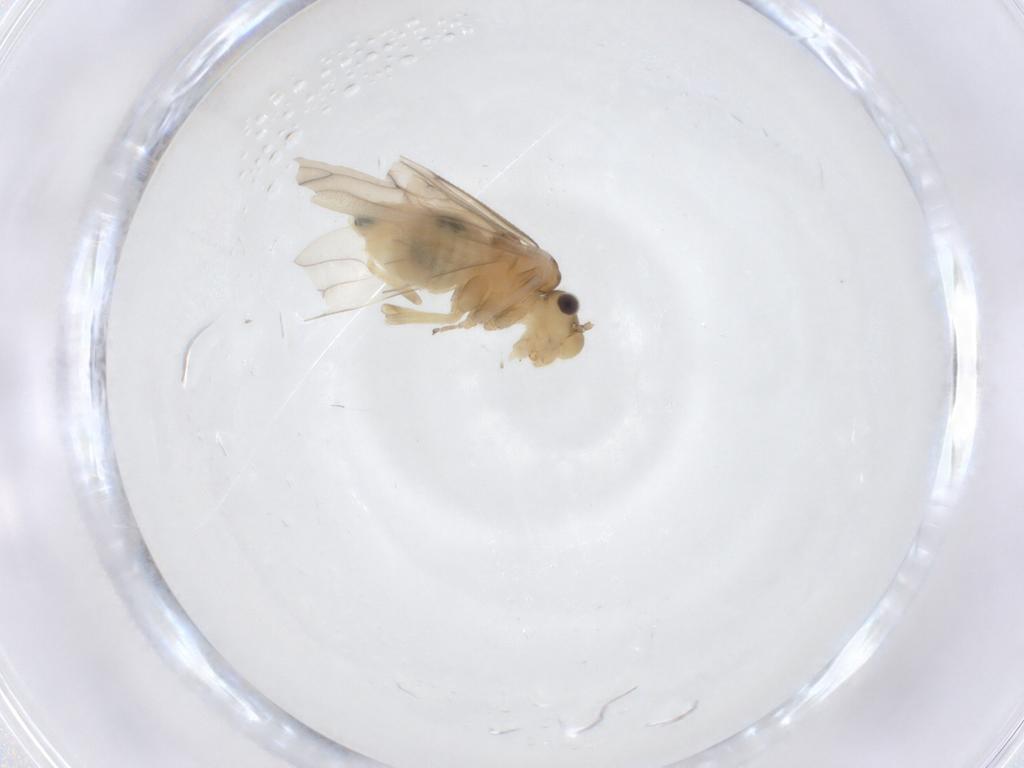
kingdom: Animalia
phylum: Arthropoda
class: Insecta
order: Psocodea
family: Caeciliusidae
